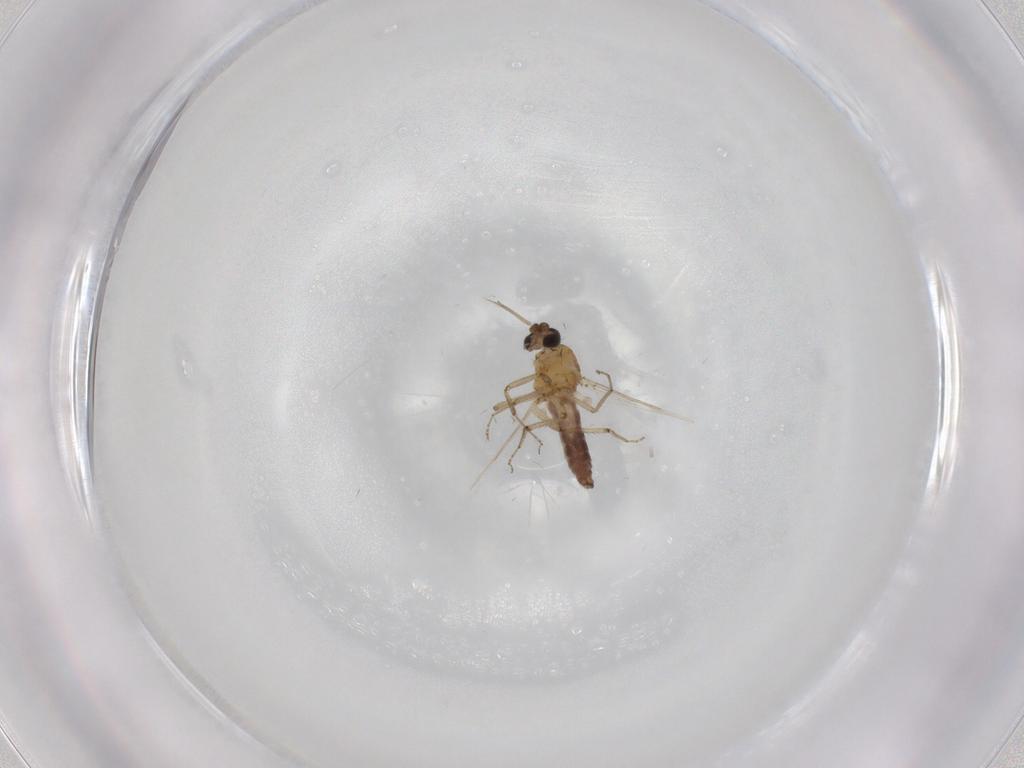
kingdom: Animalia
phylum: Arthropoda
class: Insecta
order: Diptera
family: Ceratopogonidae
